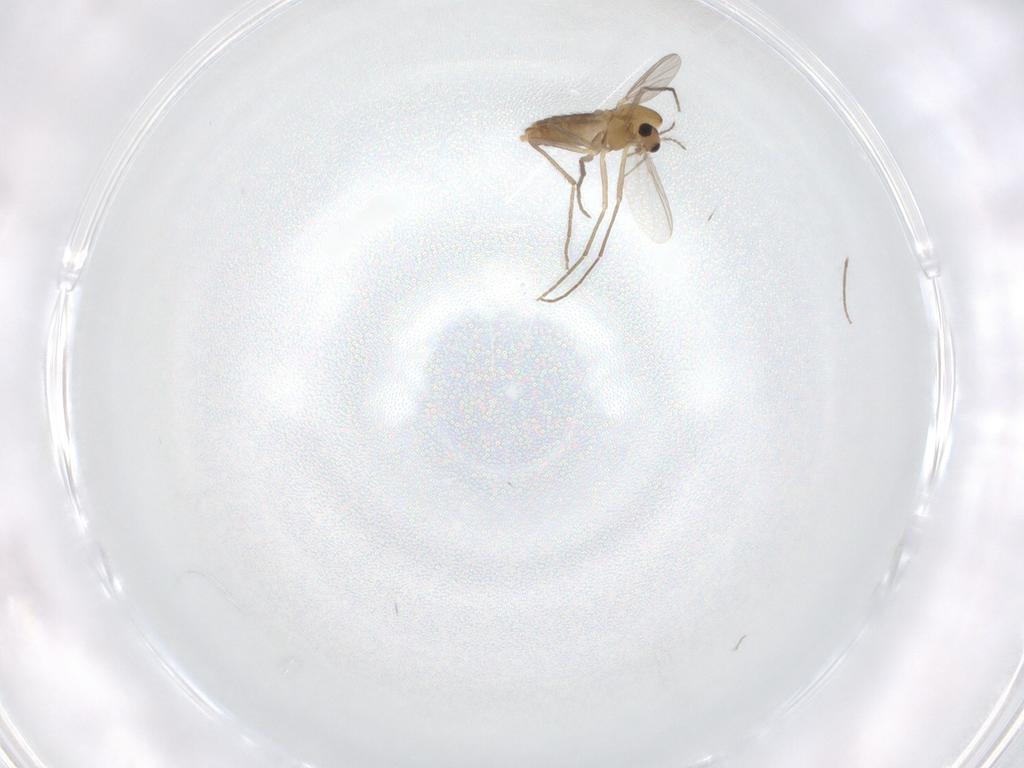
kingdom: Animalia
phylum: Arthropoda
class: Insecta
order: Diptera
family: Chironomidae
